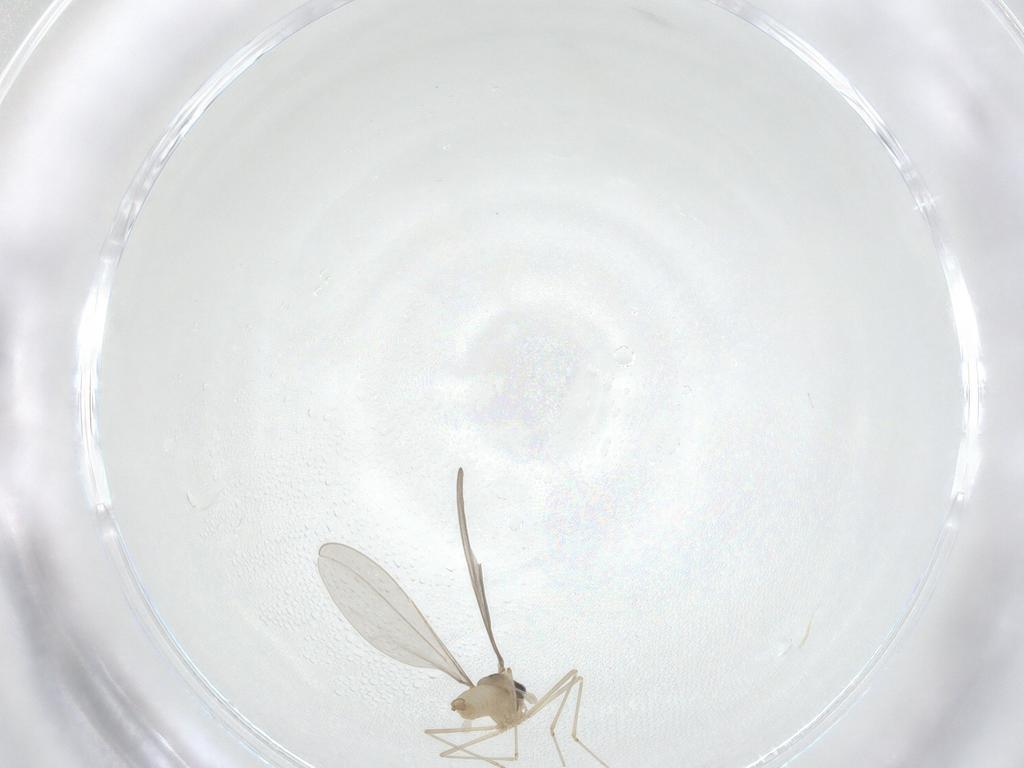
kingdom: Animalia
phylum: Arthropoda
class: Insecta
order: Diptera
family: Cecidomyiidae
